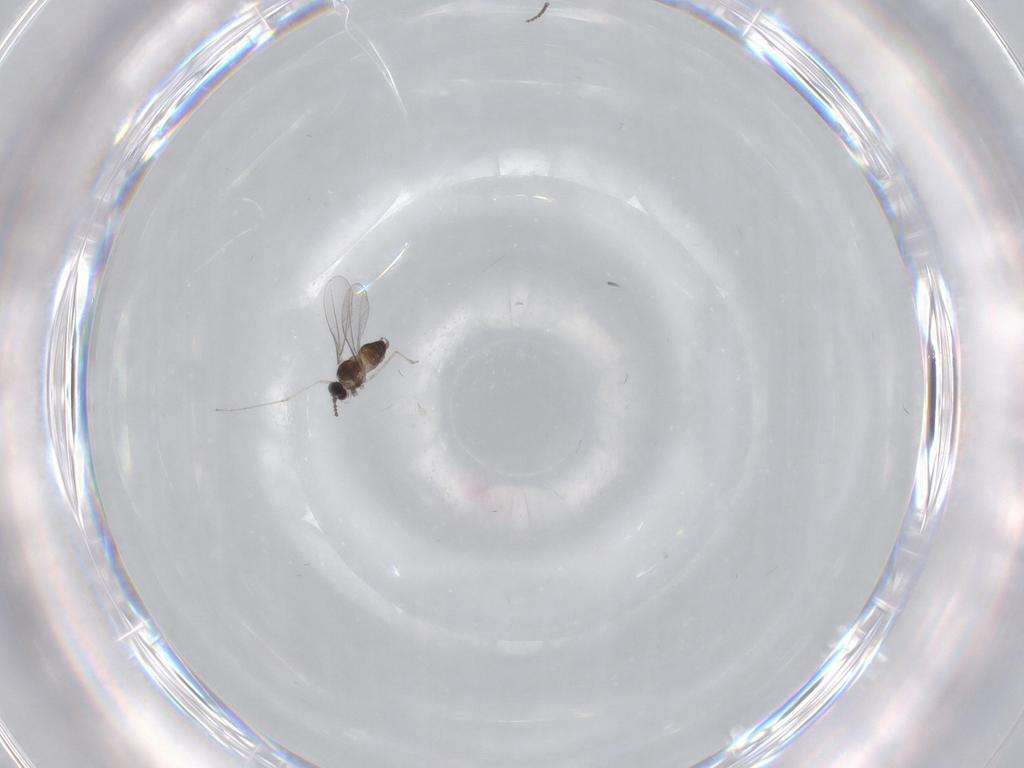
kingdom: Animalia
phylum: Arthropoda
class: Insecta
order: Diptera
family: Cecidomyiidae
